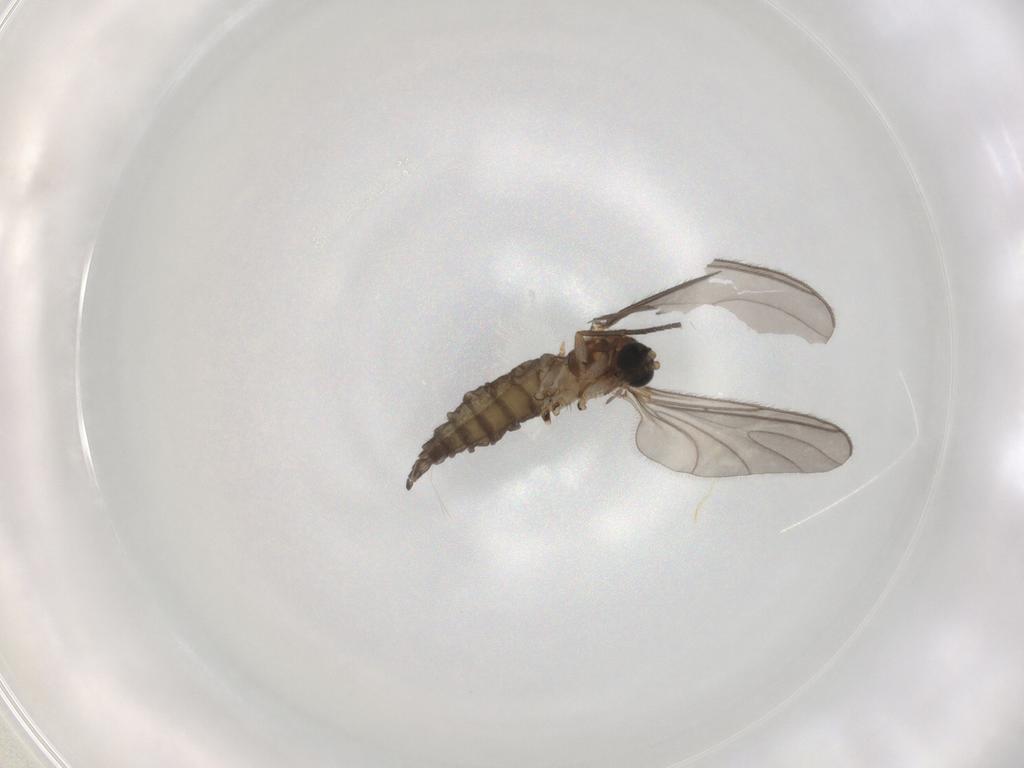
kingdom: Animalia
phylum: Arthropoda
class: Insecta
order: Diptera
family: Sciaridae
